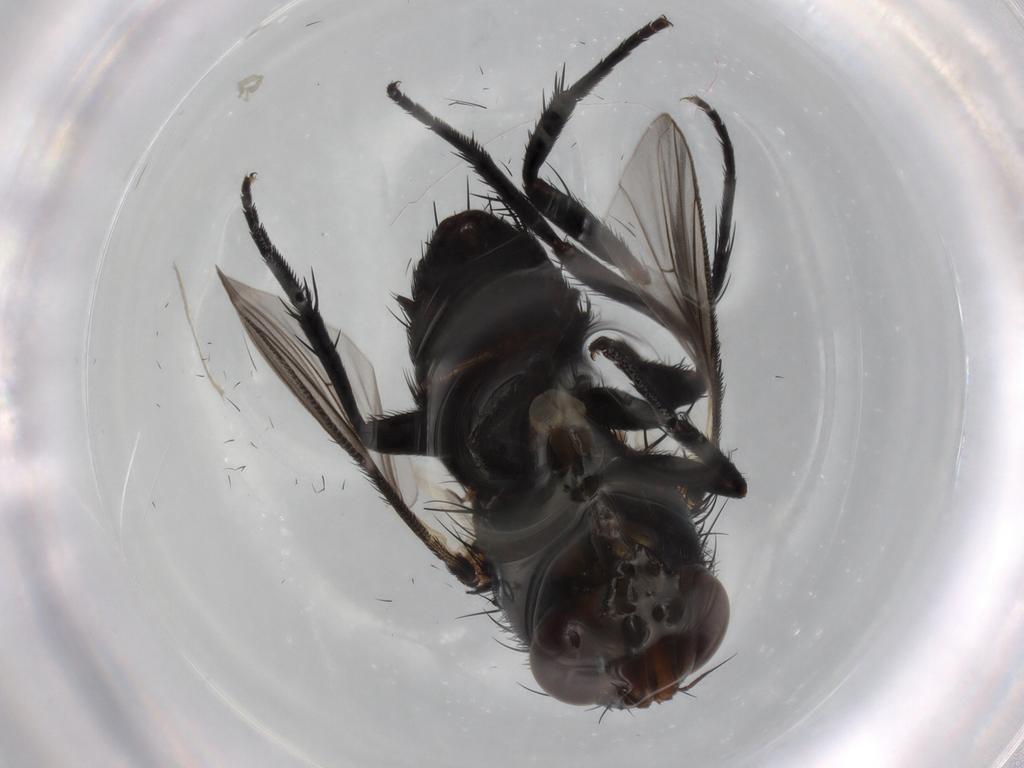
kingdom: Animalia
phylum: Arthropoda
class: Insecta
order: Diptera
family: Tachinidae
